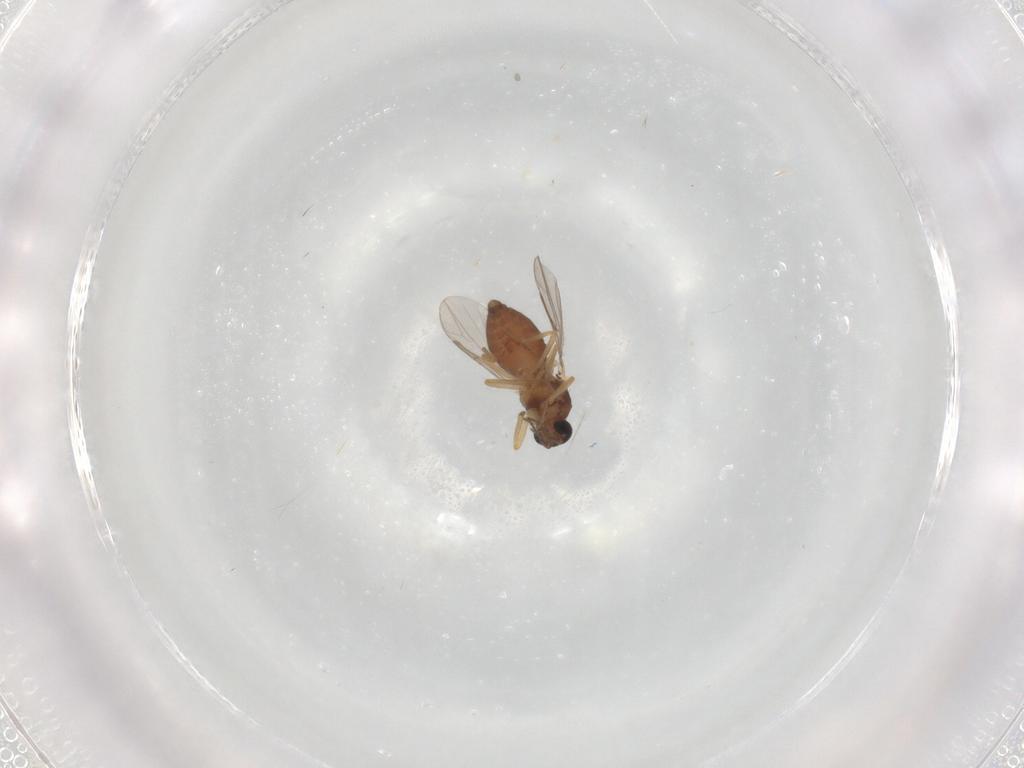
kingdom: Animalia
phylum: Arthropoda
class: Insecta
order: Diptera
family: Ceratopogonidae
